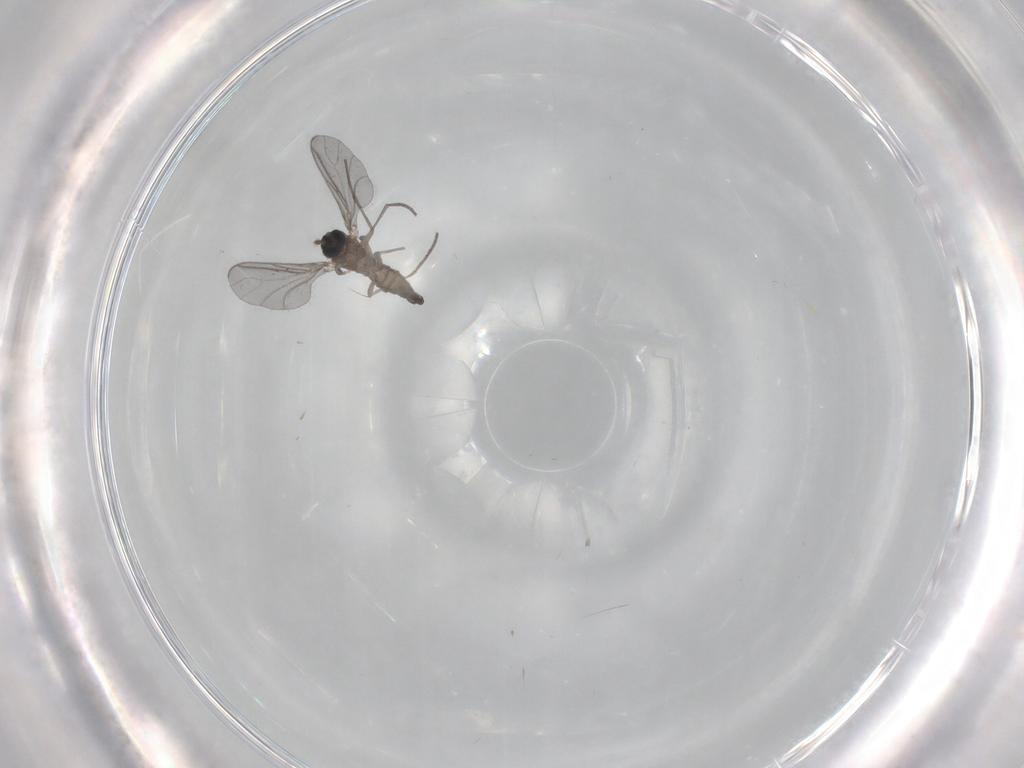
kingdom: Animalia
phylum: Arthropoda
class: Insecta
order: Diptera
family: Sciaridae
